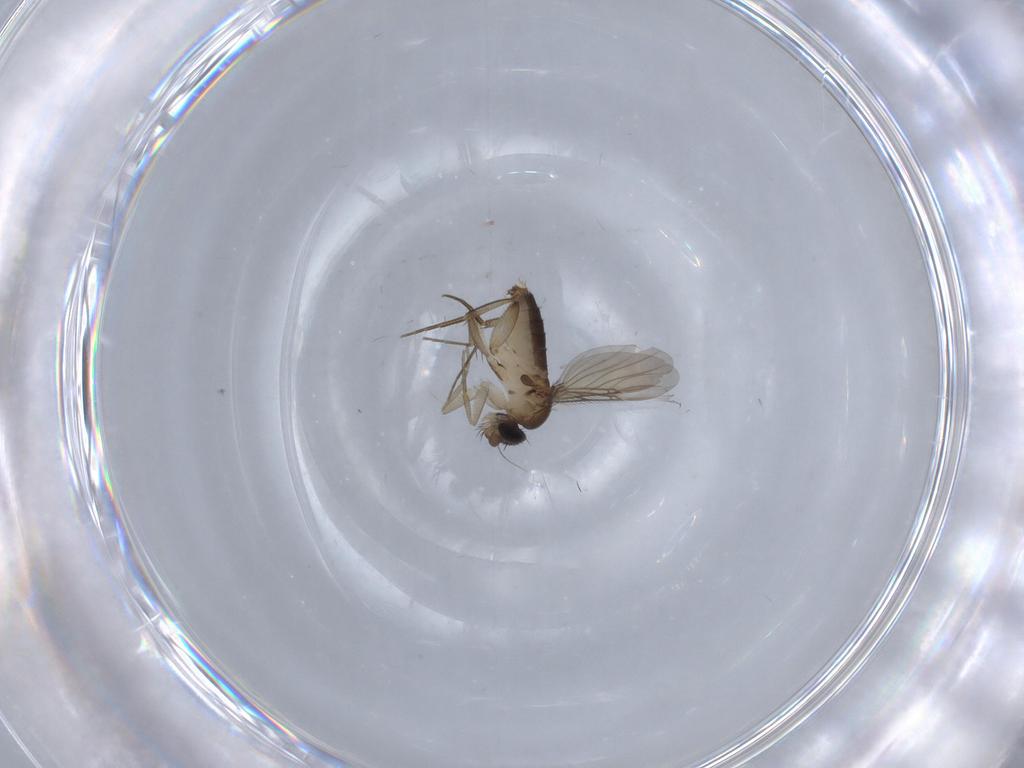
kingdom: Animalia
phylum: Arthropoda
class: Insecta
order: Diptera
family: Phoridae
